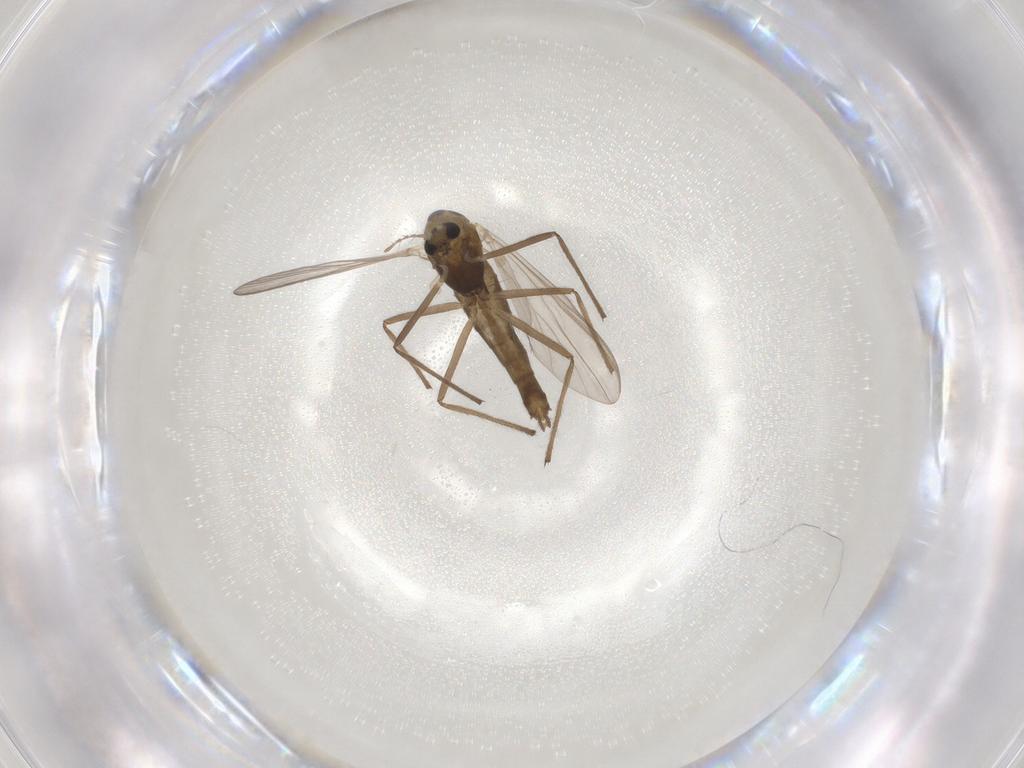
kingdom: Animalia
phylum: Arthropoda
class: Insecta
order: Diptera
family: Chironomidae
